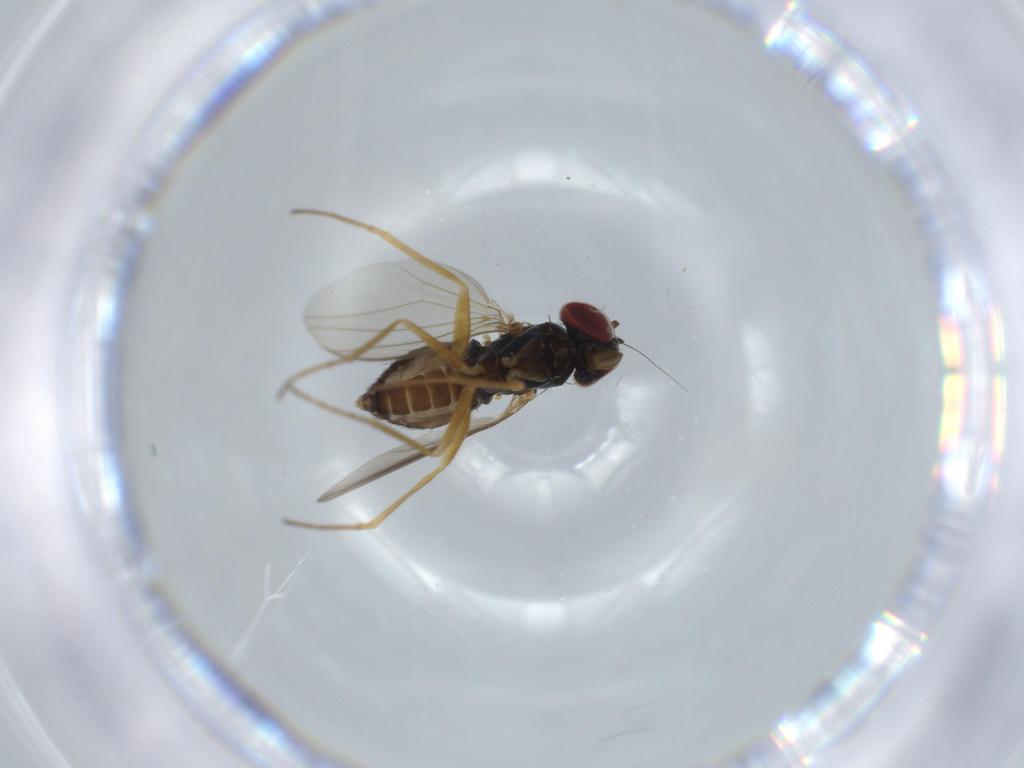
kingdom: Animalia
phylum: Arthropoda
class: Insecta
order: Diptera
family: Dolichopodidae
